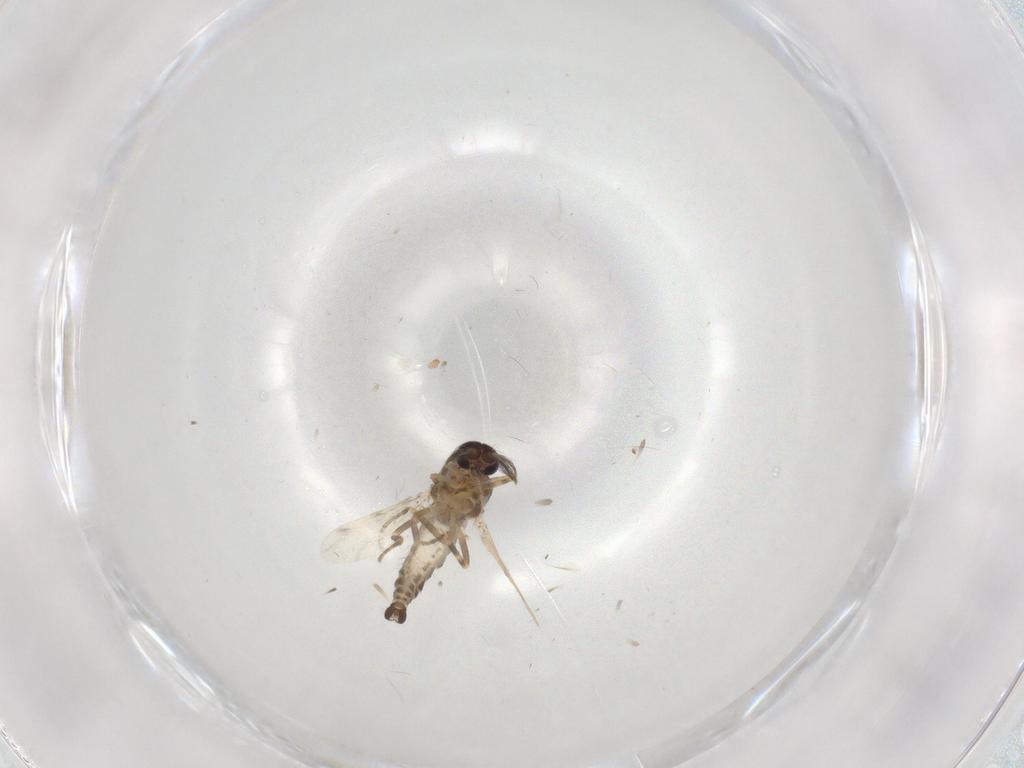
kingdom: Animalia
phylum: Arthropoda
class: Insecta
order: Diptera
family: Ceratopogonidae
